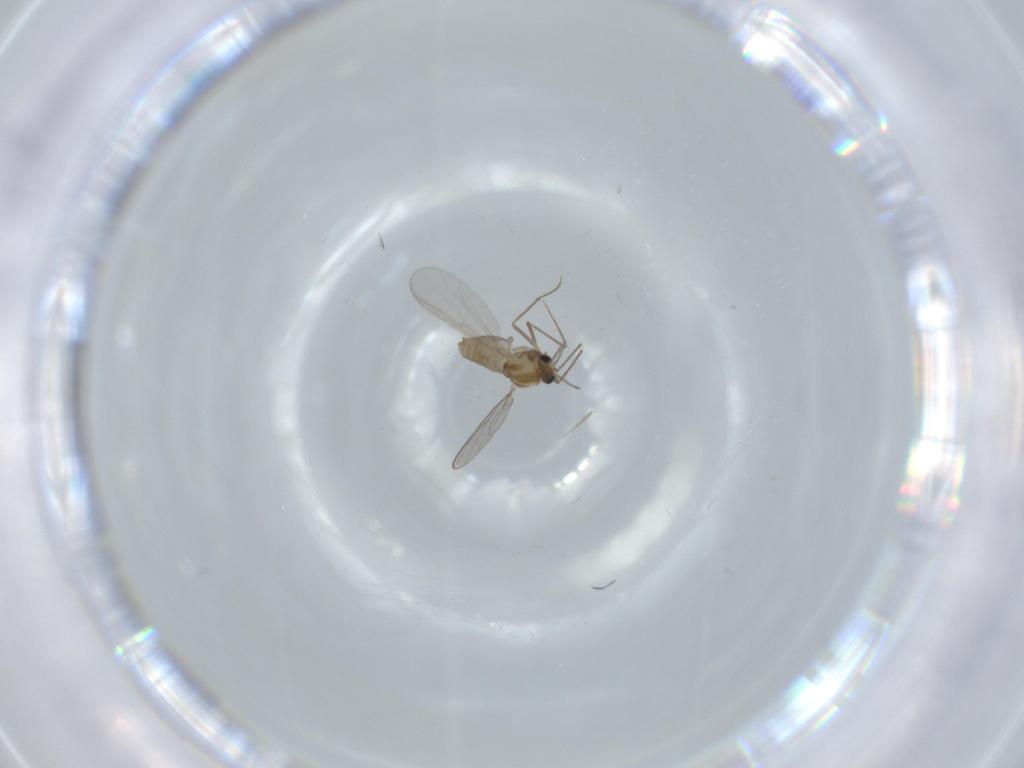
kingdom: Animalia
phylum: Arthropoda
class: Insecta
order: Diptera
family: Chironomidae
